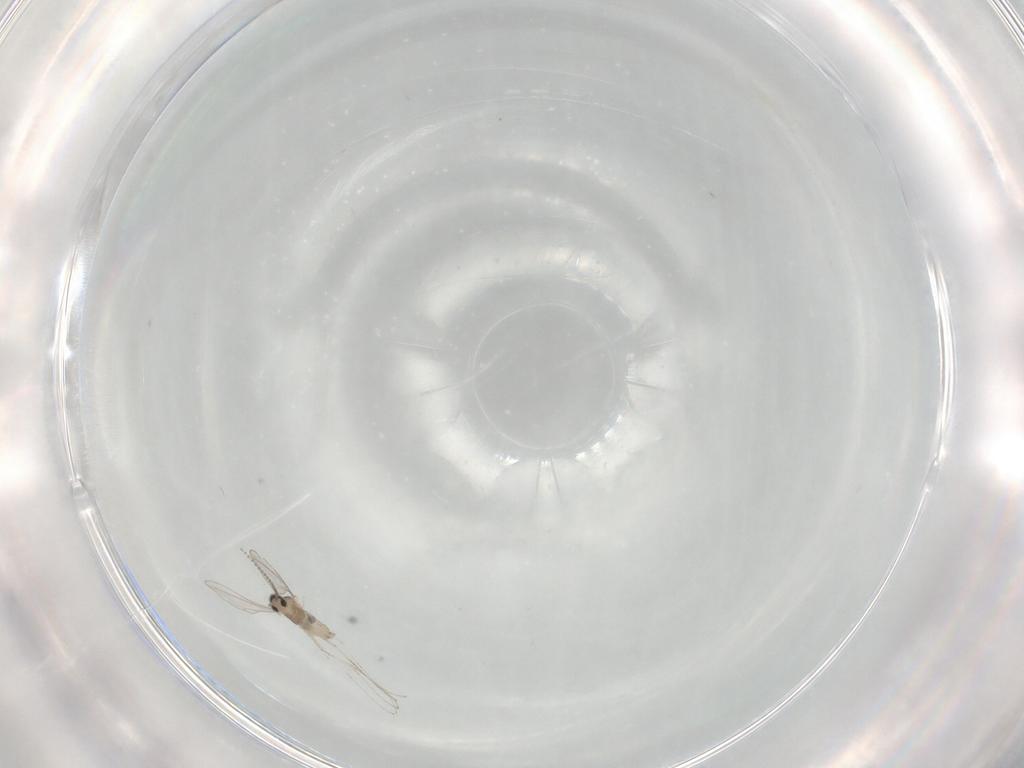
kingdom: Animalia
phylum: Arthropoda
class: Insecta
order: Diptera
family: Cecidomyiidae
